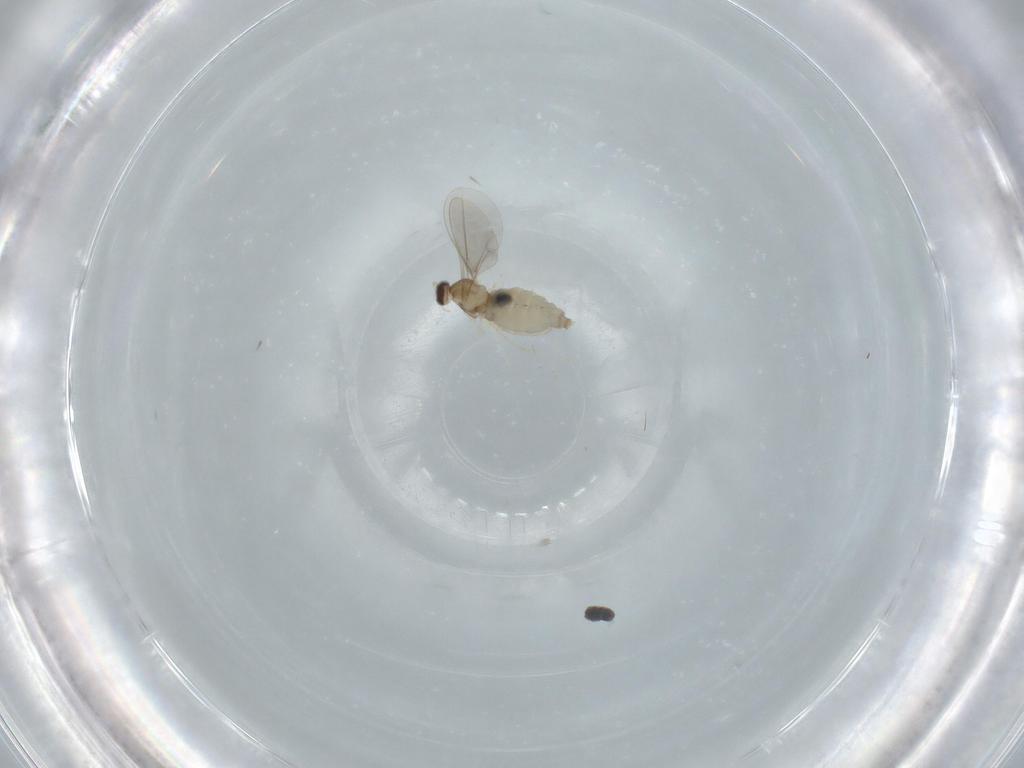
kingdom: Animalia
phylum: Arthropoda
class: Insecta
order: Diptera
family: Cecidomyiidae
